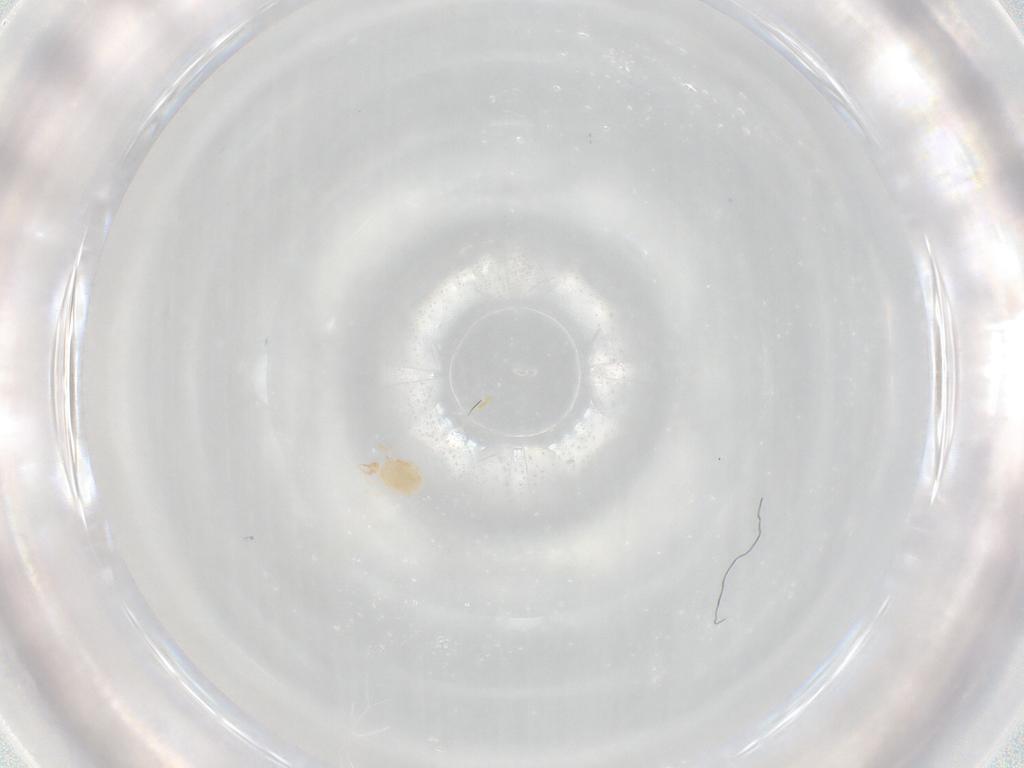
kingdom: Animalia
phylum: Arthropoda
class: Arachnida
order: Trombidiformes
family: Cunaxidae
